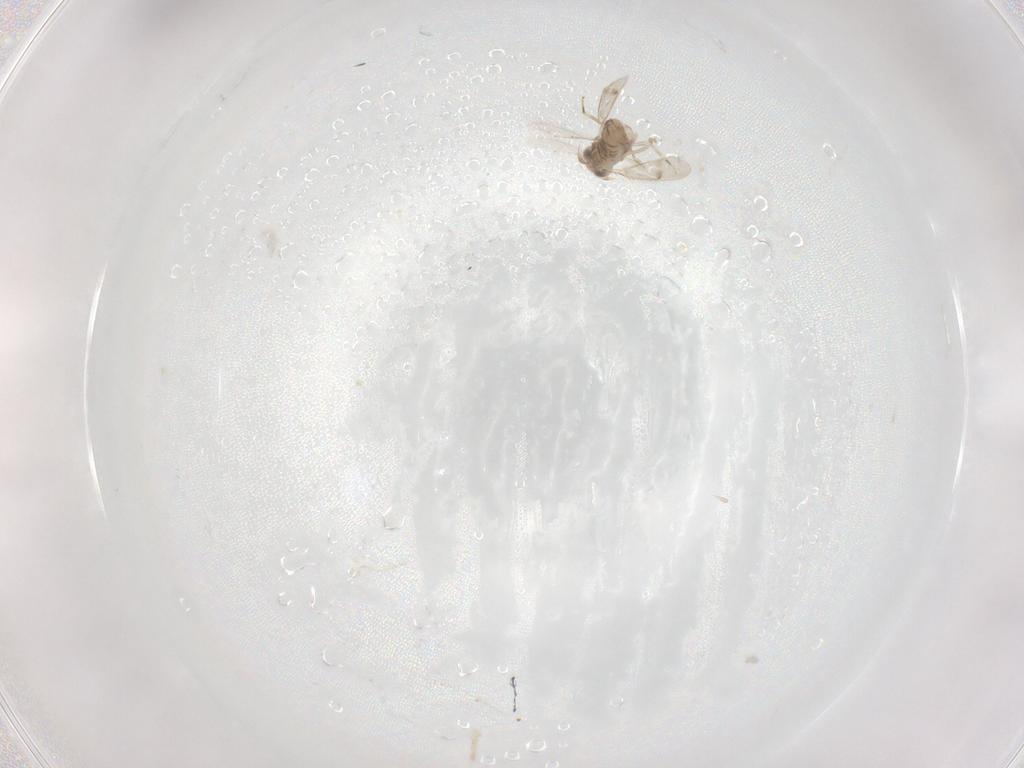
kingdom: Animalia
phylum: Arthropoda
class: Insecta
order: Hymenoptera
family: Aphelinidae
